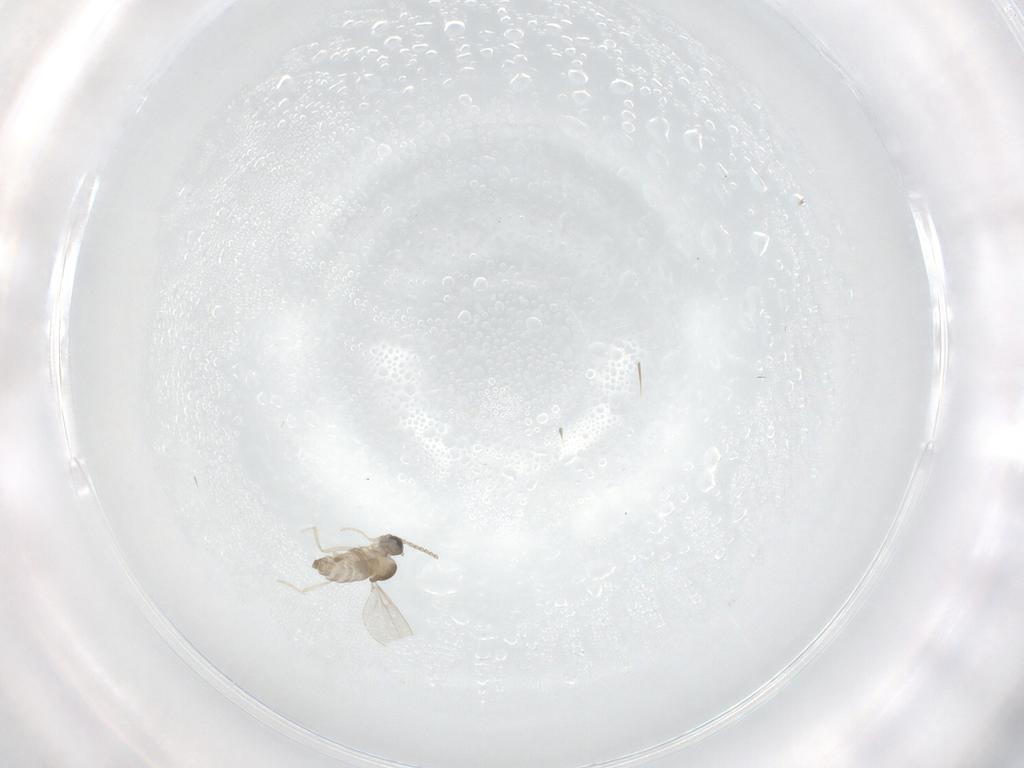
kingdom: Animalia
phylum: Arthropoda
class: Insecta
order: Diptera
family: Cecidomyiidae
